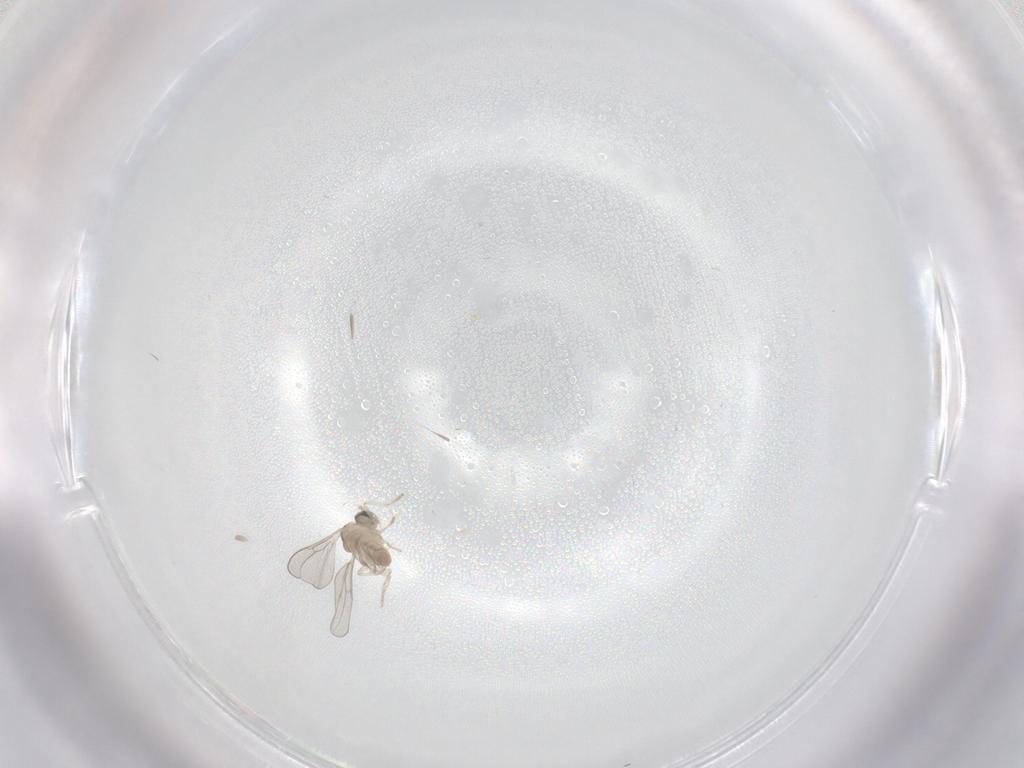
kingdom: Animalia
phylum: Arthropoda
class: Insecta
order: Diptera
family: Cecidomyiidae
